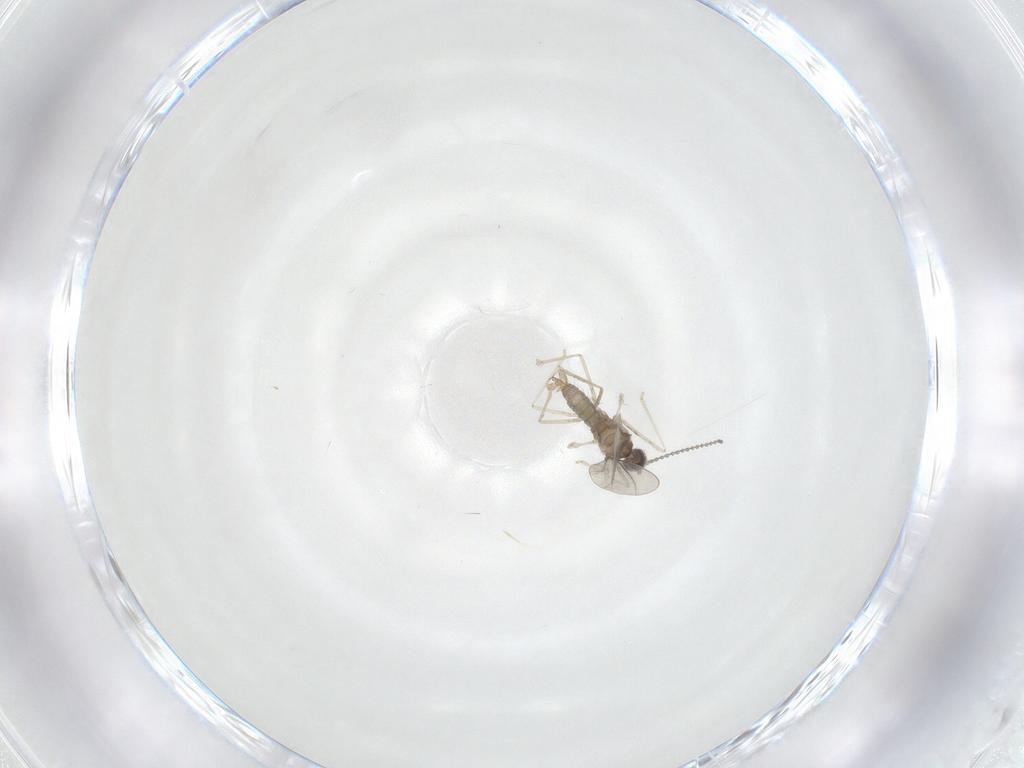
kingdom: Animalia
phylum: Arthropoda
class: Insecta
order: Diptera
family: Cecidomyiidae
